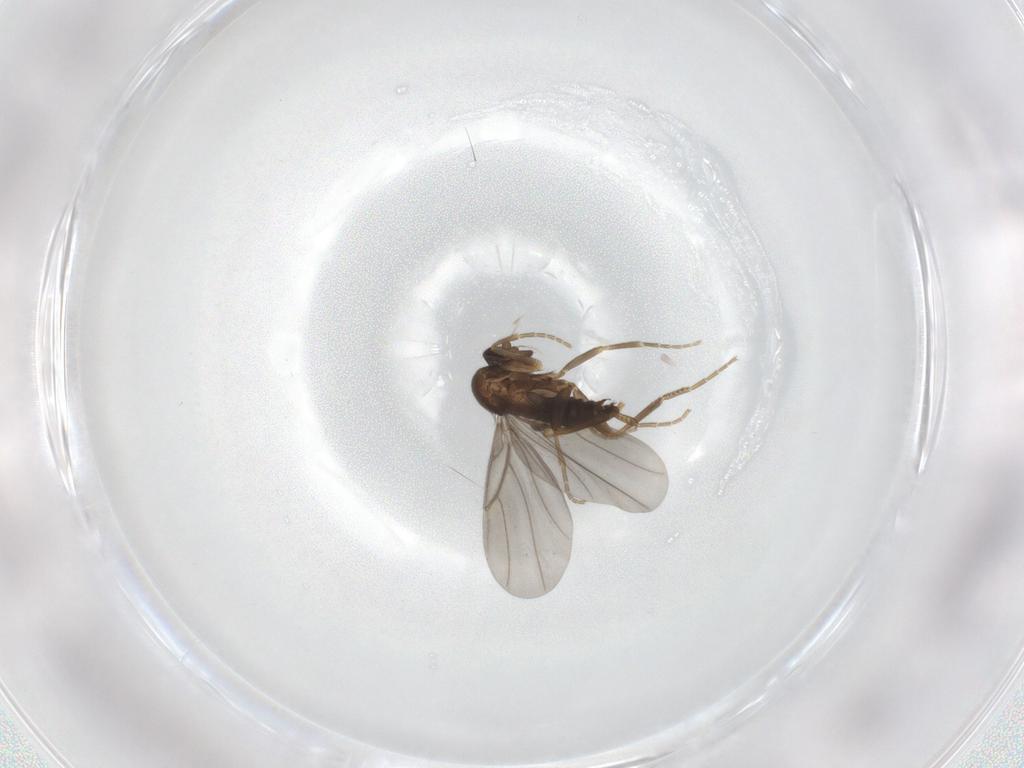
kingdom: Animalia
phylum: Arthropoda
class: Insecta
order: Diptera
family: Phoridae
